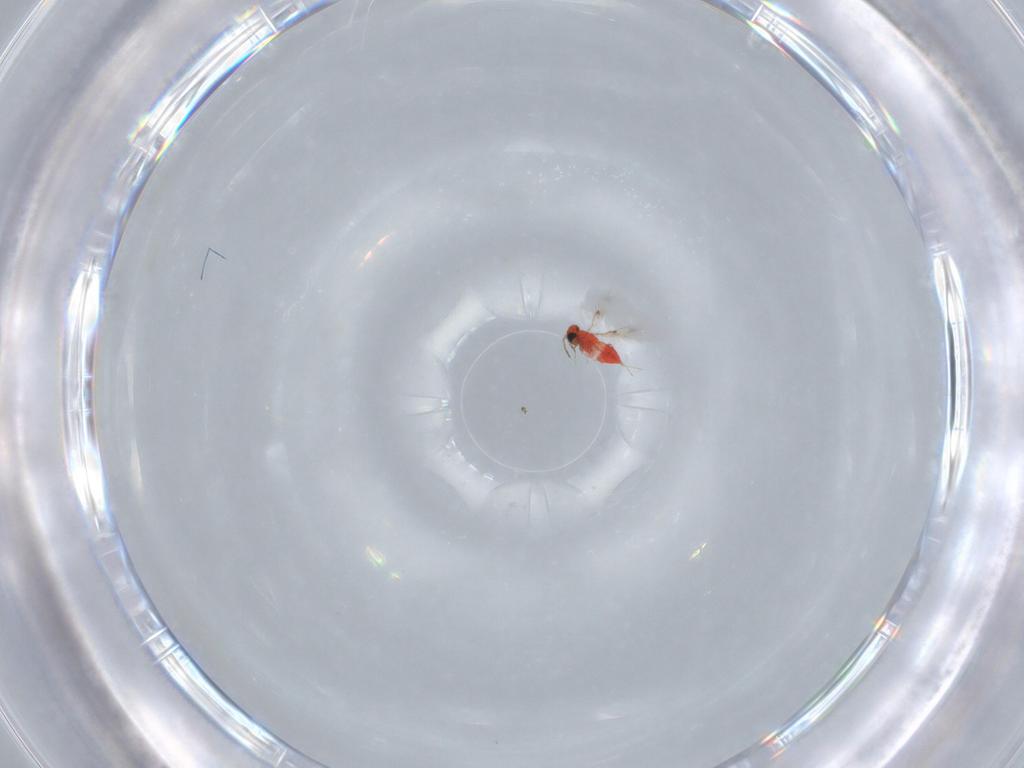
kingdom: Animalia
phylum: Arthropoda
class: Insecta
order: Hymenoptera
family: Trichogrammatidae
